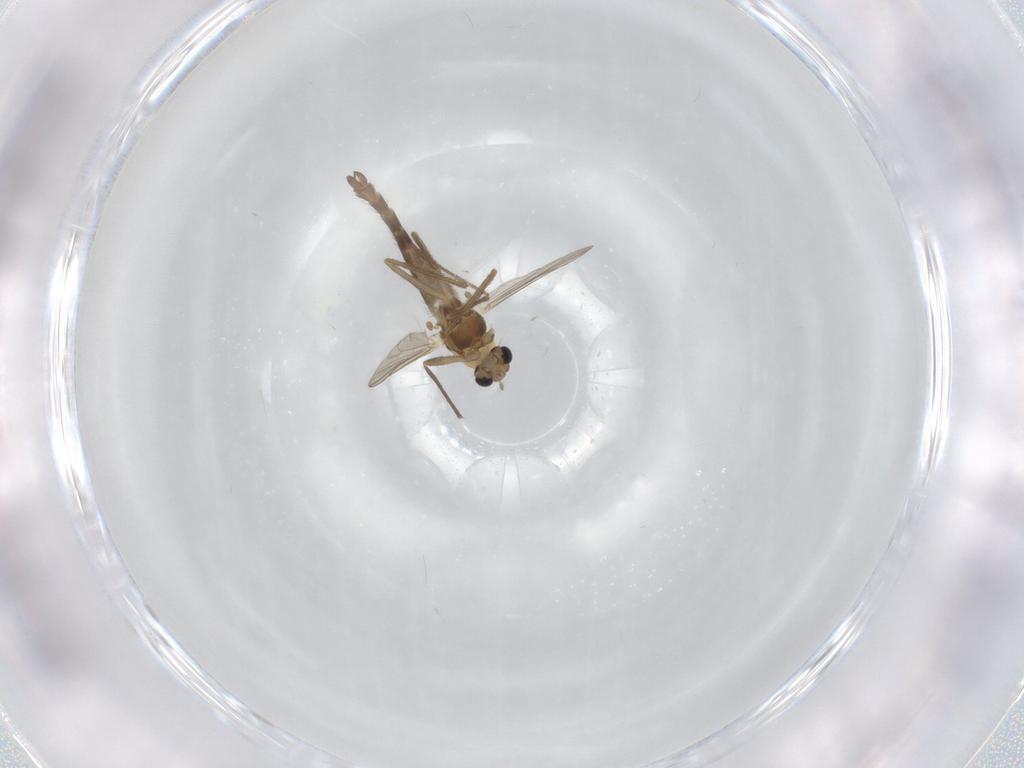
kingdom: Animalia
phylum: Arthropoda
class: Insecta
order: Diptera
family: Chironomidae
